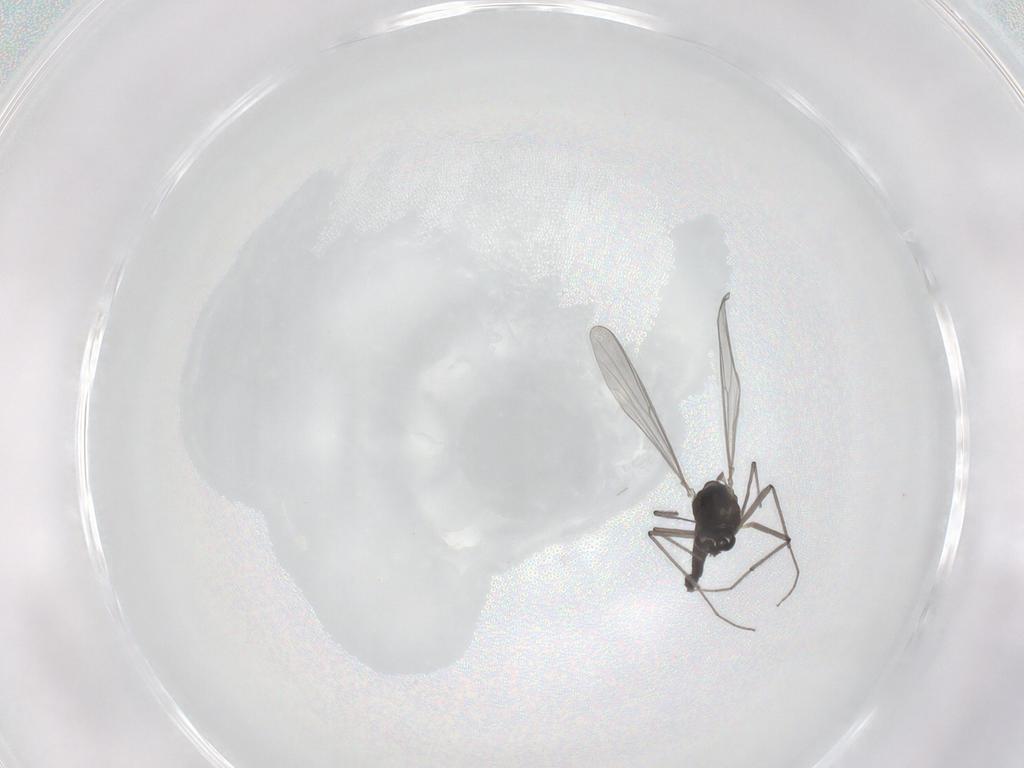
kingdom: Animalia
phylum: Arthropoda
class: Insecta
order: Diptera
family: Chironomidae
